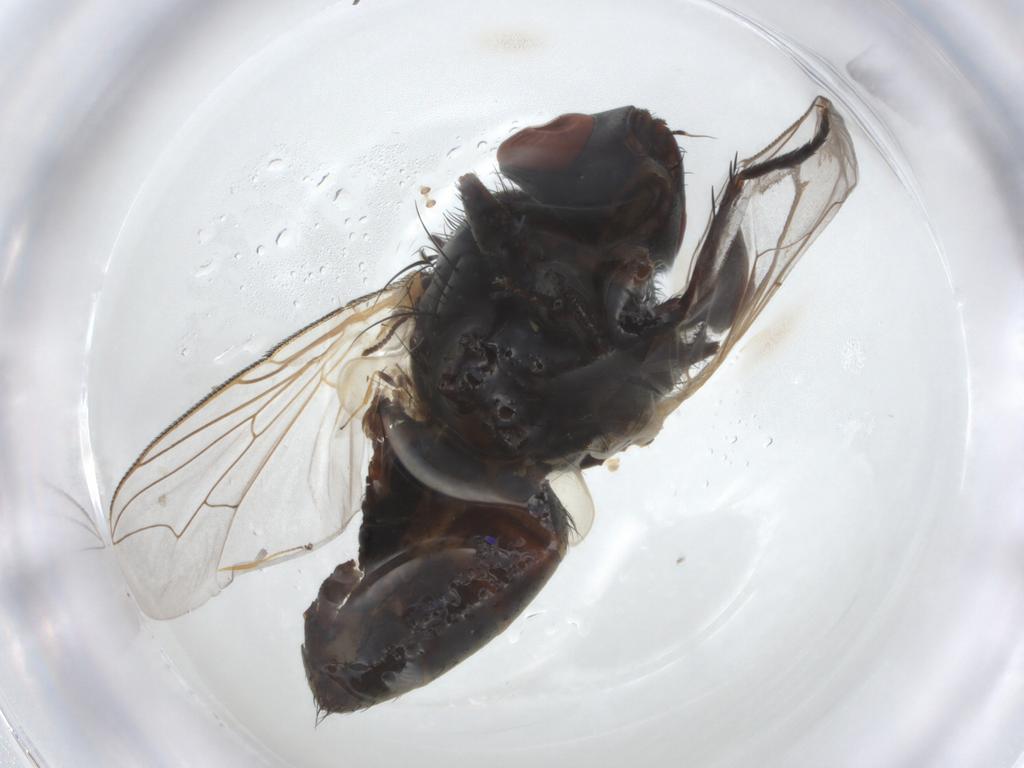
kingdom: Animalia
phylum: Arthropoda
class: Insecta
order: Diptera
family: Sarcophagidae
